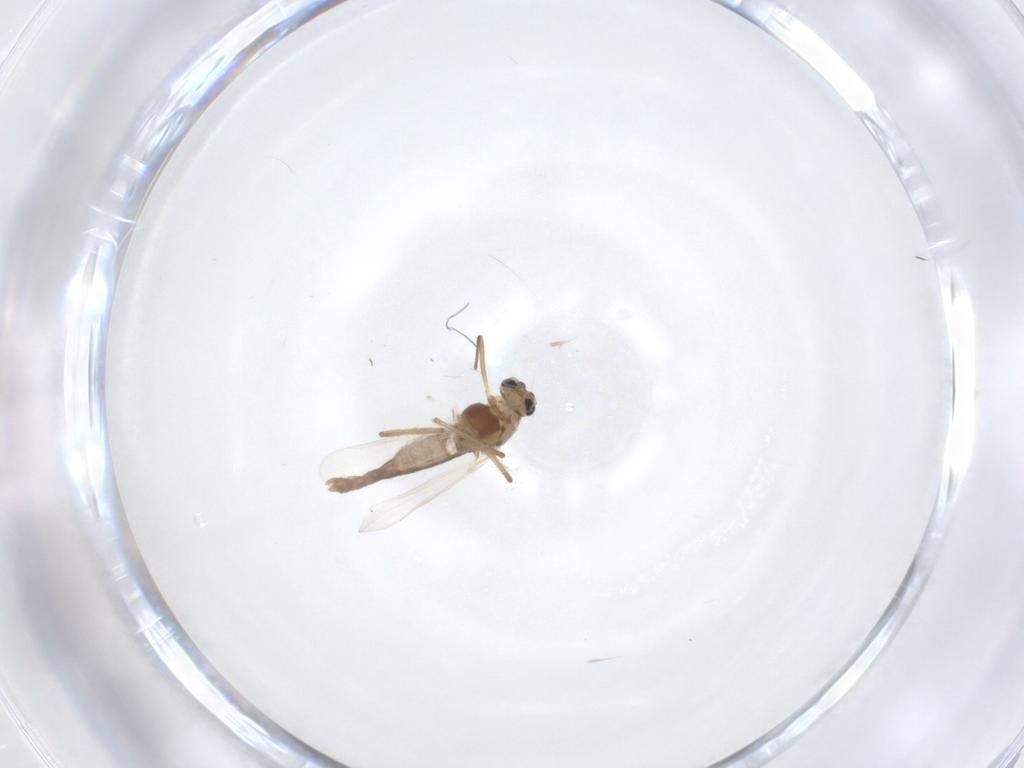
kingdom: Animalia
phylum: Arthropoda
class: Insecta
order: Diptera
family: Chironomidae
